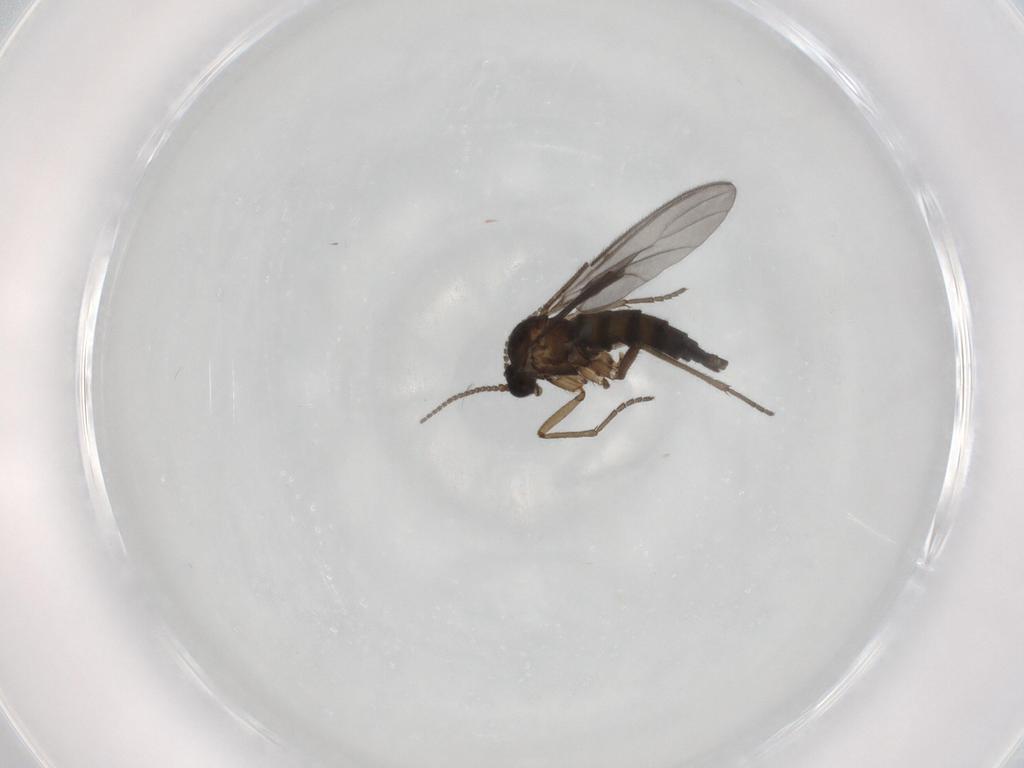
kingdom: Animalia
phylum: Arthropoda
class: Insecta
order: Diptera
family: Sciaridae
